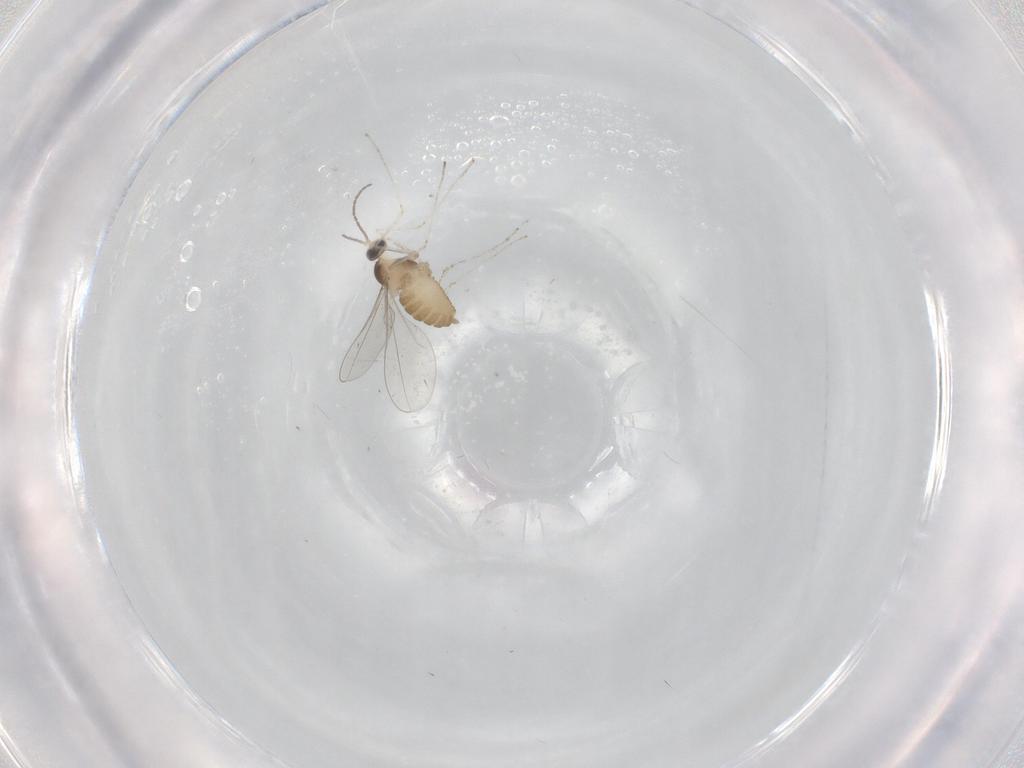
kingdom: Animalia
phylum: Arthropoda
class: Insecta
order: Diptera
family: Cecidomyiidae
